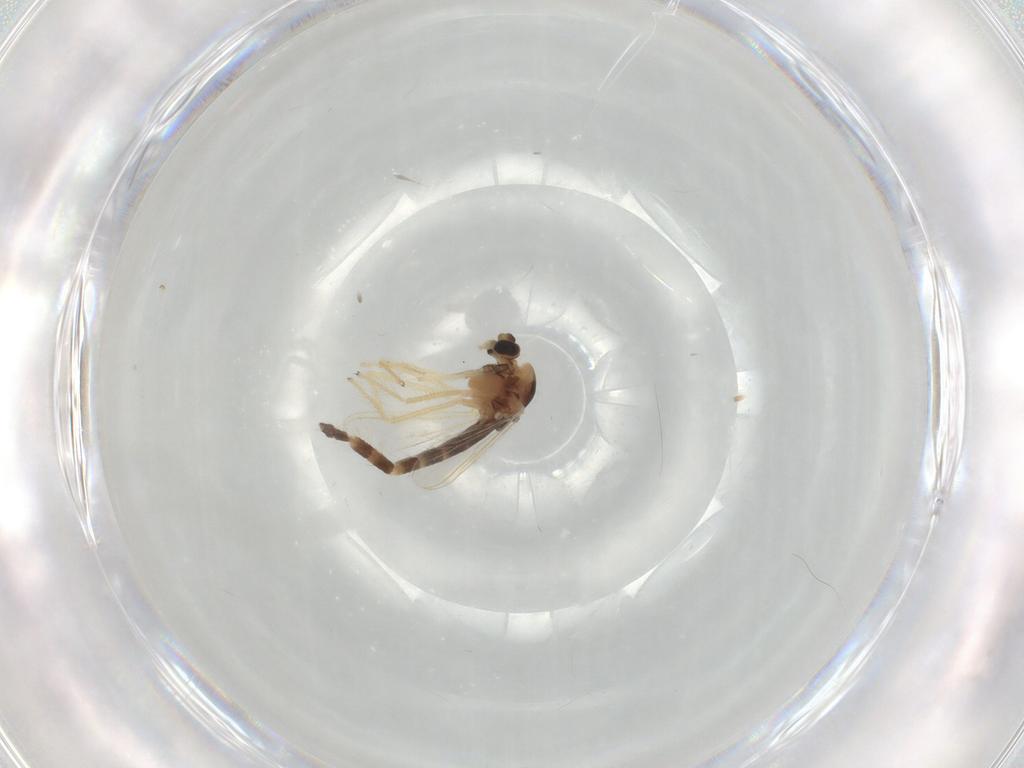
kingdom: Animalia
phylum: Arthropoda
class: Insecta
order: Diptera
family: Chironomidae
